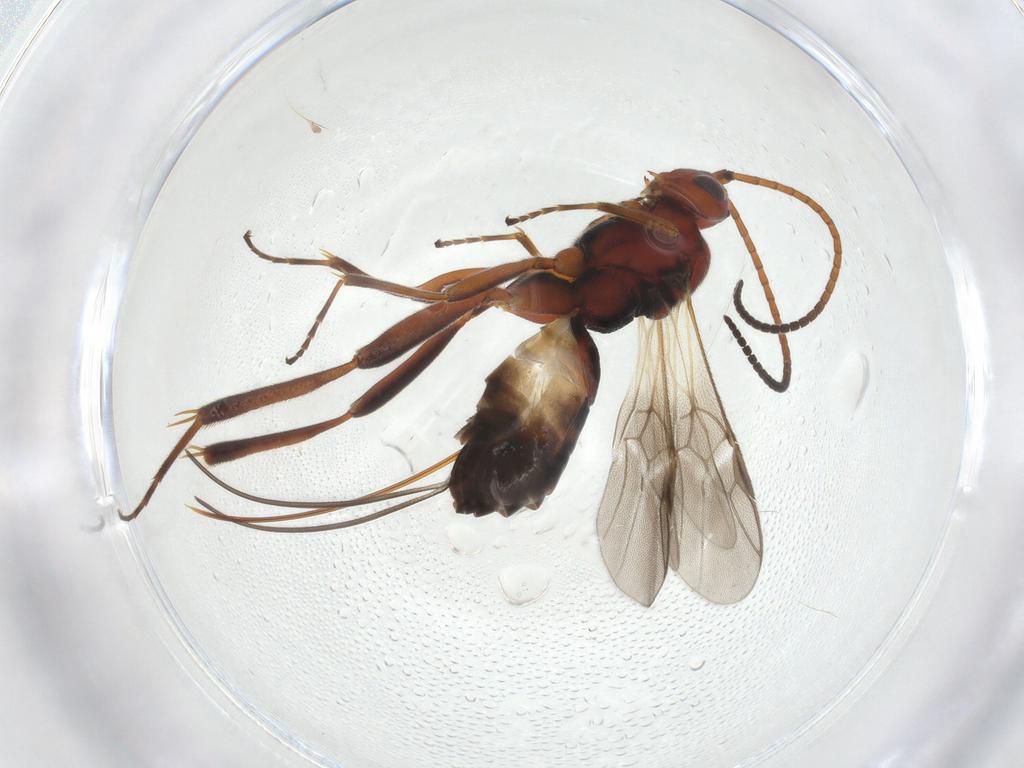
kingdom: Animalia
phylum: Arthropoda
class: Insecta
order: Hymenoptera
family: Braconidae
